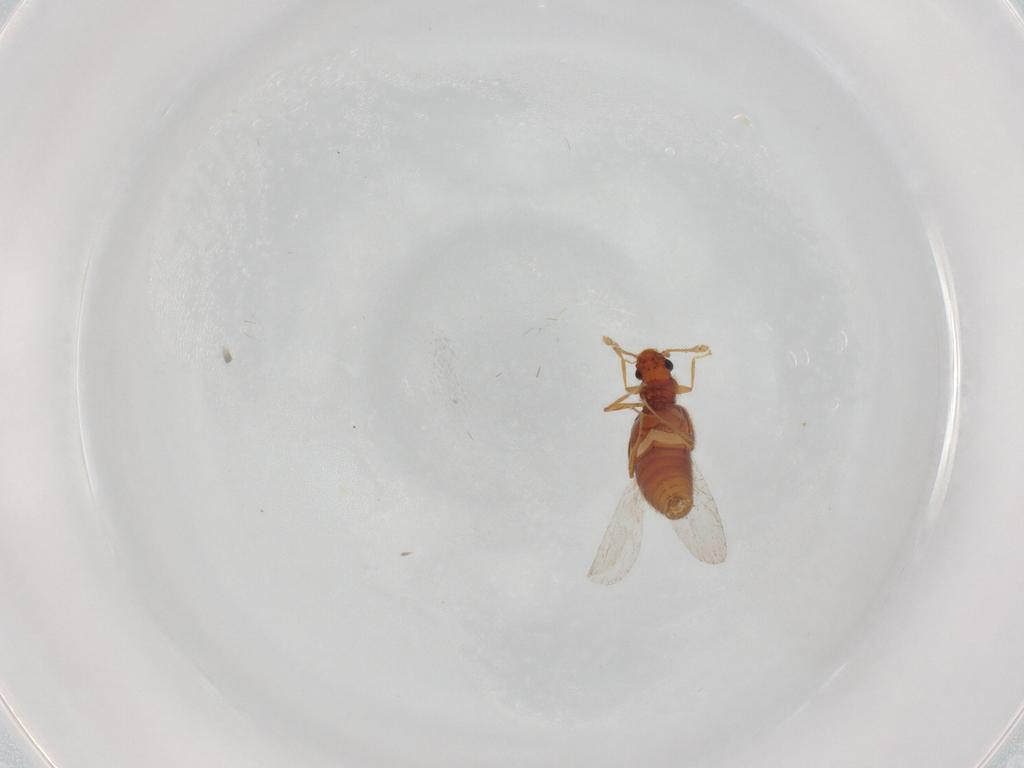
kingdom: Animalia
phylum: Arthropoda
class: Insecta
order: Coleoptera
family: Staphylinidae
